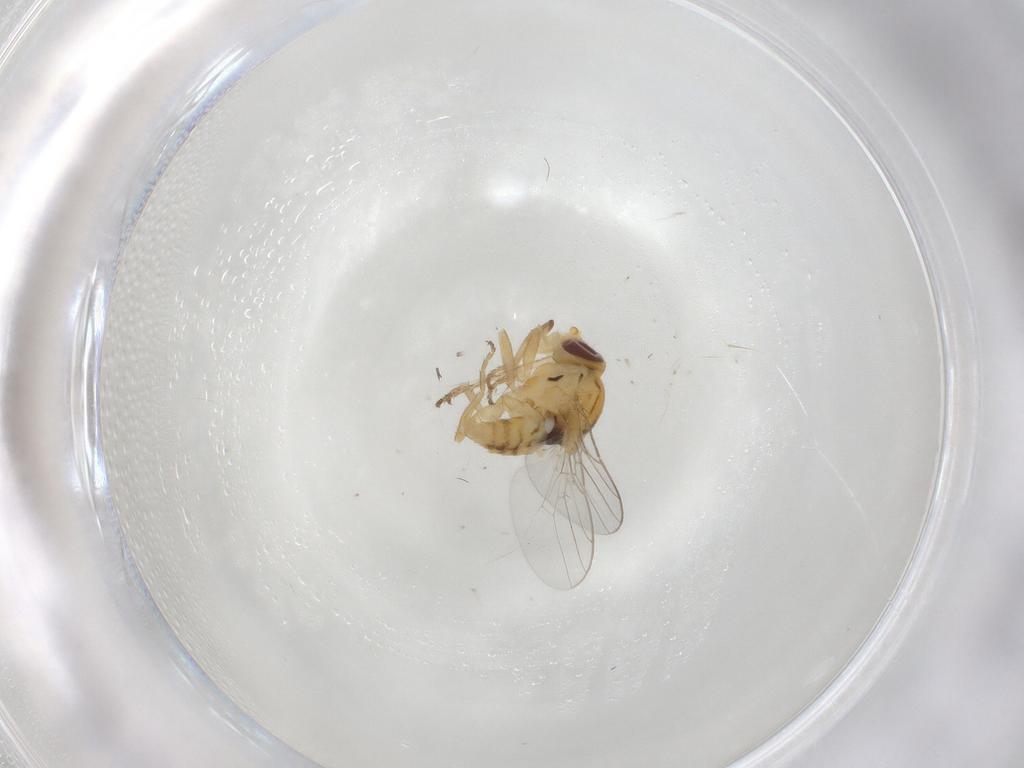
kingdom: Animalia
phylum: Arthropoda
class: Insecta
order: Diptera
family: Chloropidae
